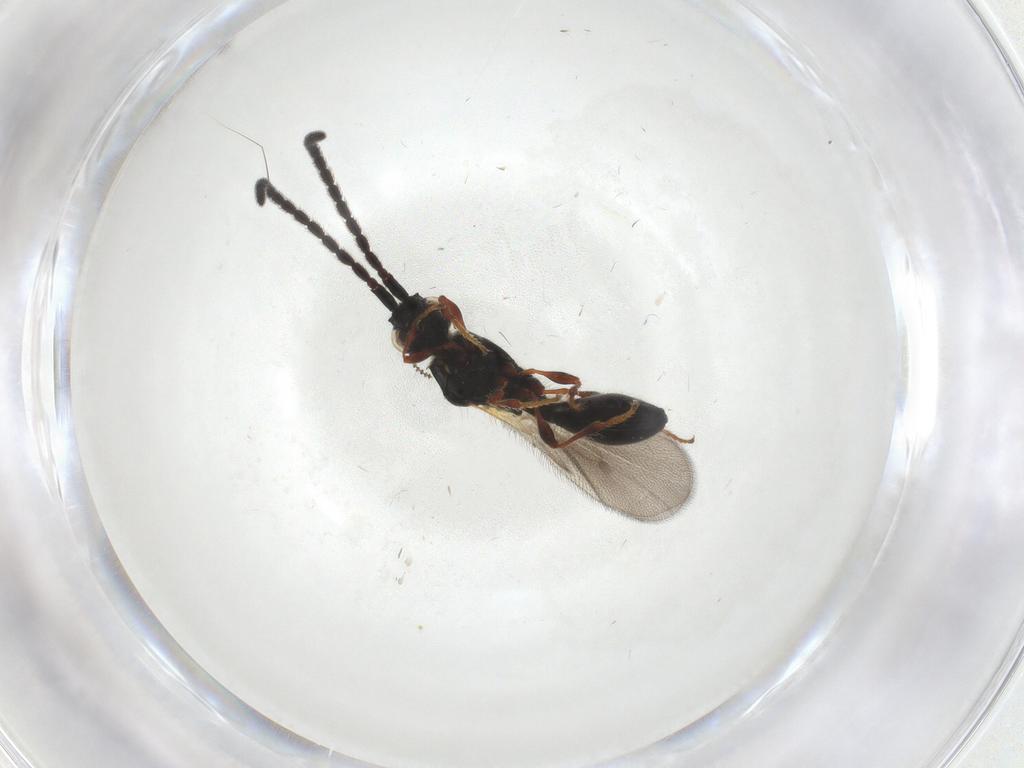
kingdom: Animalia
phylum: Arthropoda
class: Insecta
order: Hymenoptera
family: Diapriidae
